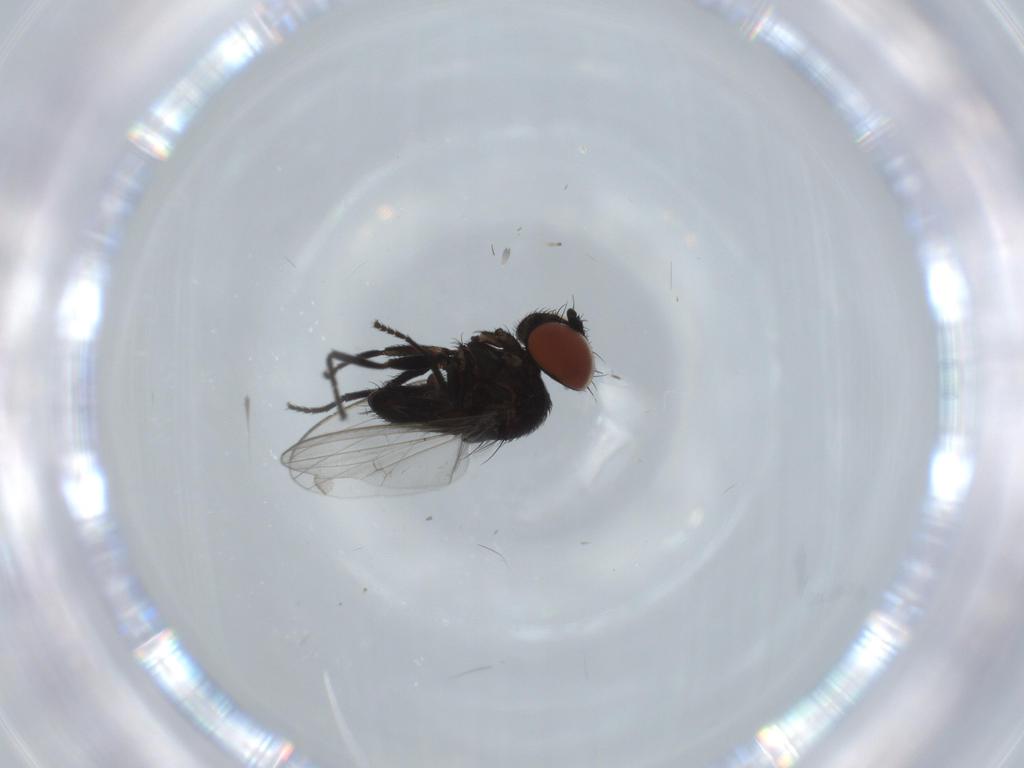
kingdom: Animalia
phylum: Arthropoda
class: Insecta
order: Diptera
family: Milichiidae
